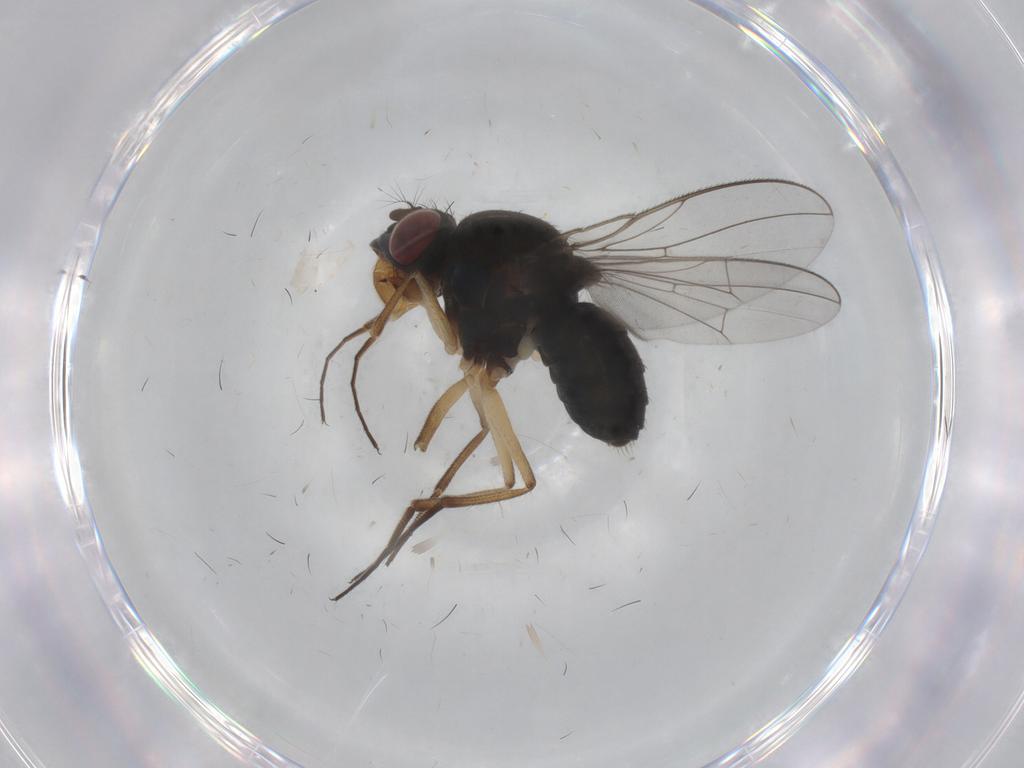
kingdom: Animalia
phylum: Arthropoda
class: Insecta
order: Diptera
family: Ephydridae
